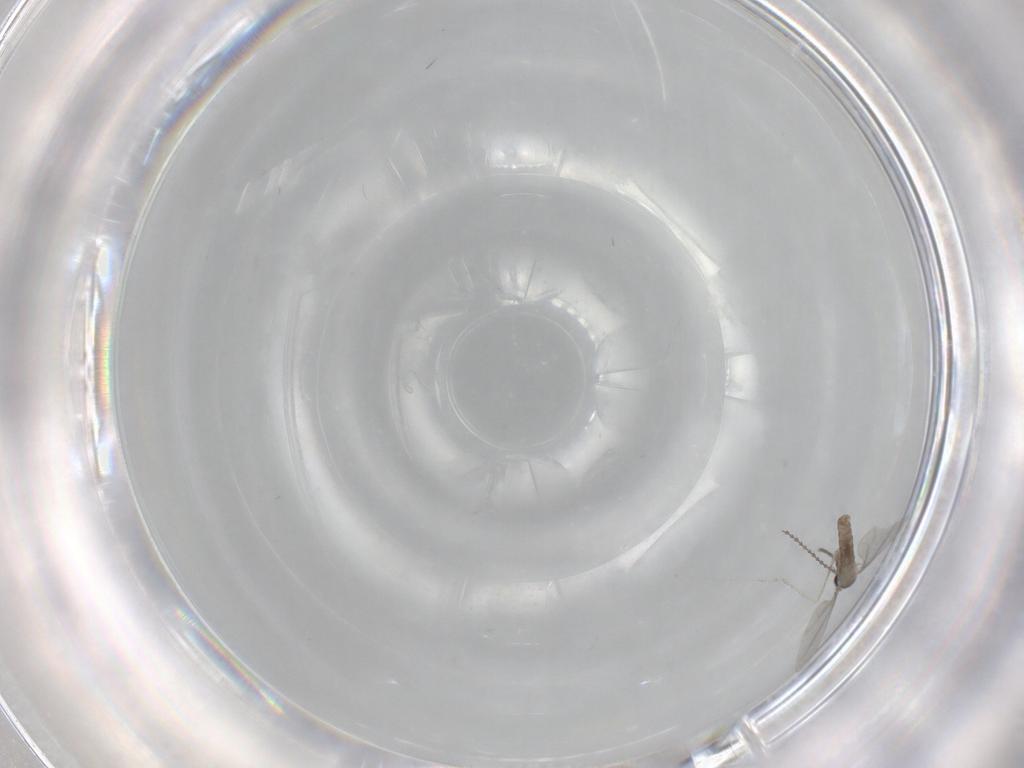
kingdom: Animalia
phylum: Arthropoda
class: Insecta
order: Diptera
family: Cecidomyiidae
